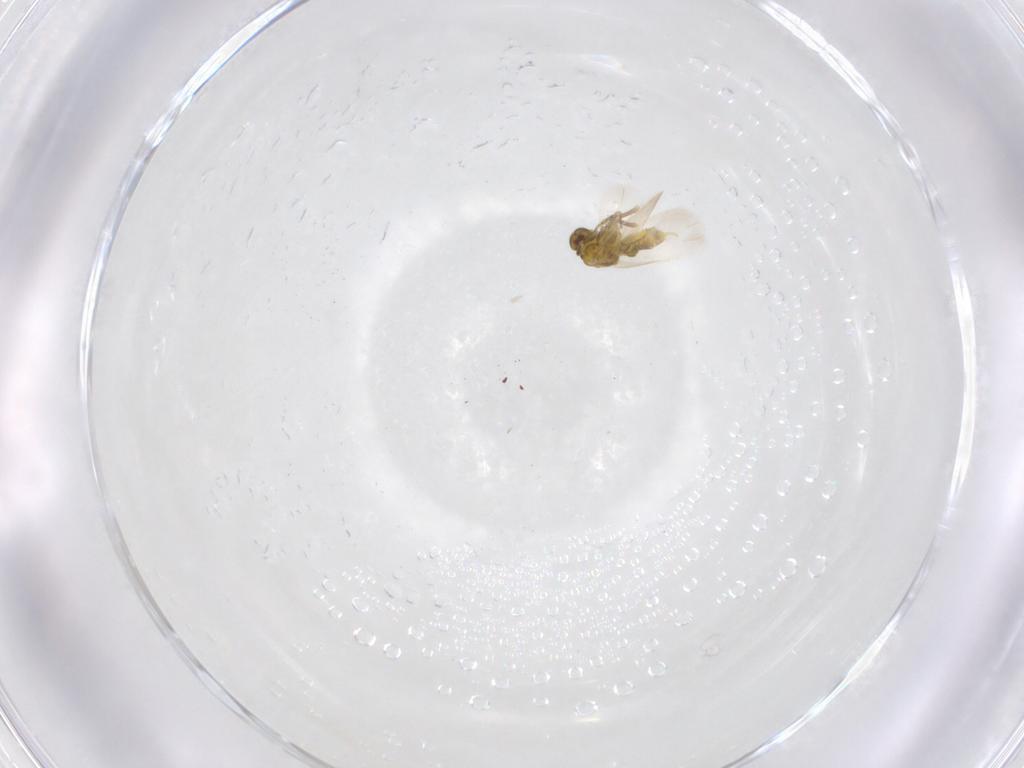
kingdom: Animalia
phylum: Arthropoda
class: Insecta
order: Hemiptera
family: Aleyrodidae
